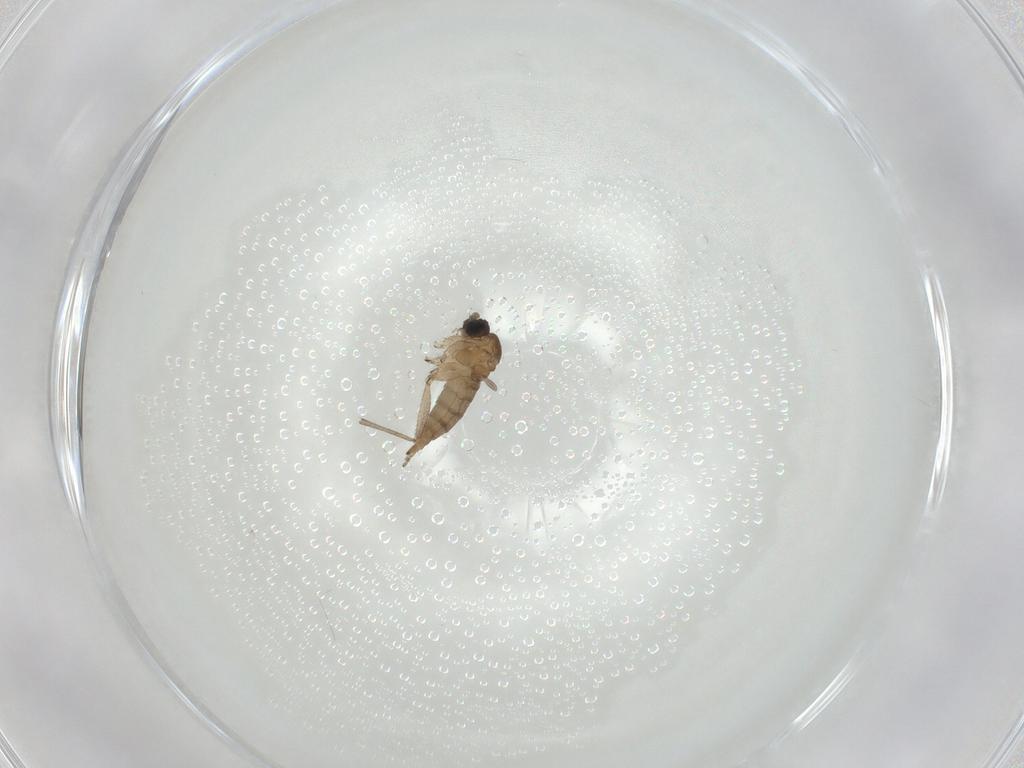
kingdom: Animalia
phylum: Arthropoda
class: Insecta
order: Diptera
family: Sciaridae
